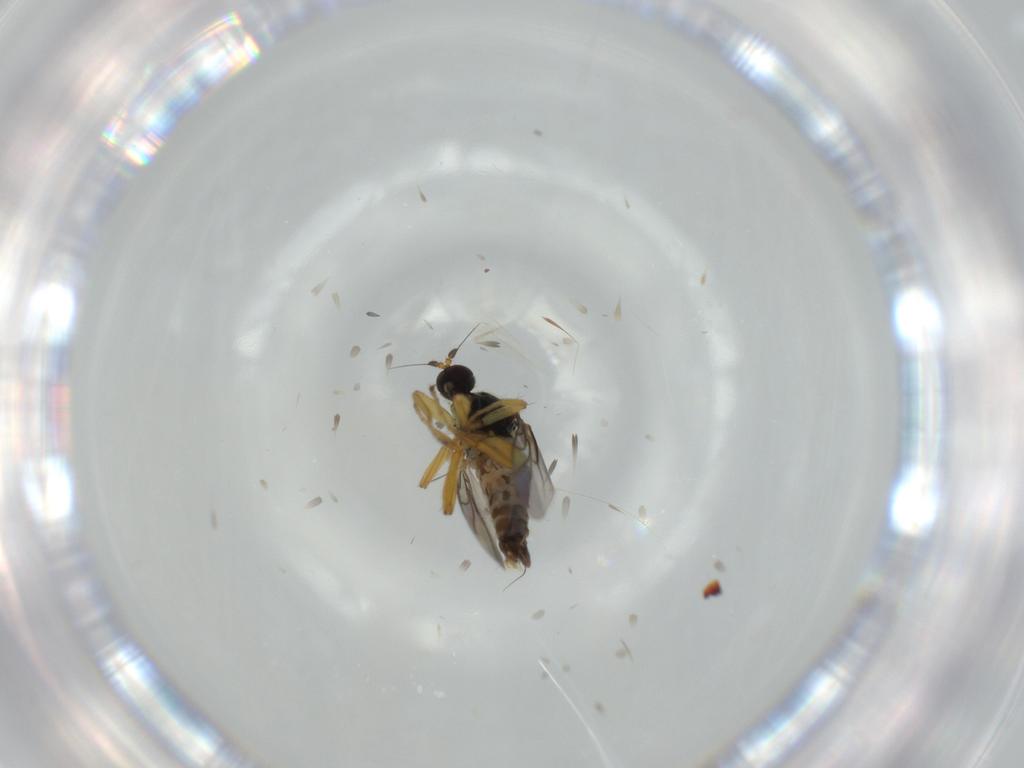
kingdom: Animalia
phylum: Arthropoda
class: Insecta
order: Diptera
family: Hybotidae
